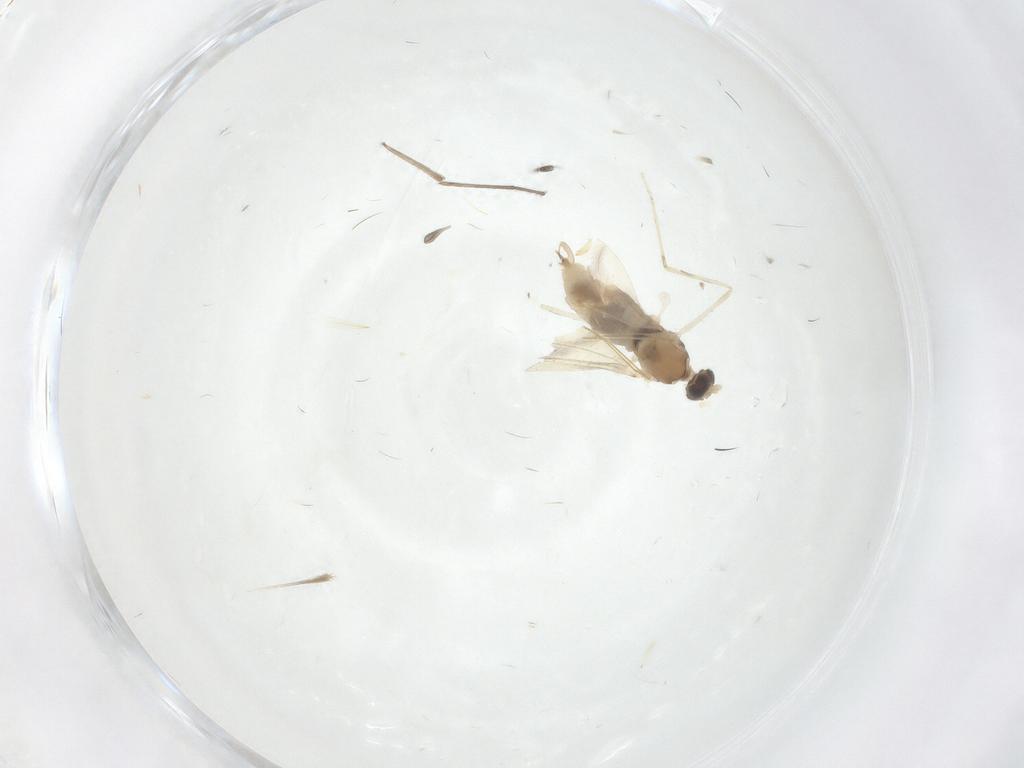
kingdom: Animalia
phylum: Arthropoda
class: Insecta
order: Diptera
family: Cecidomyiidae
